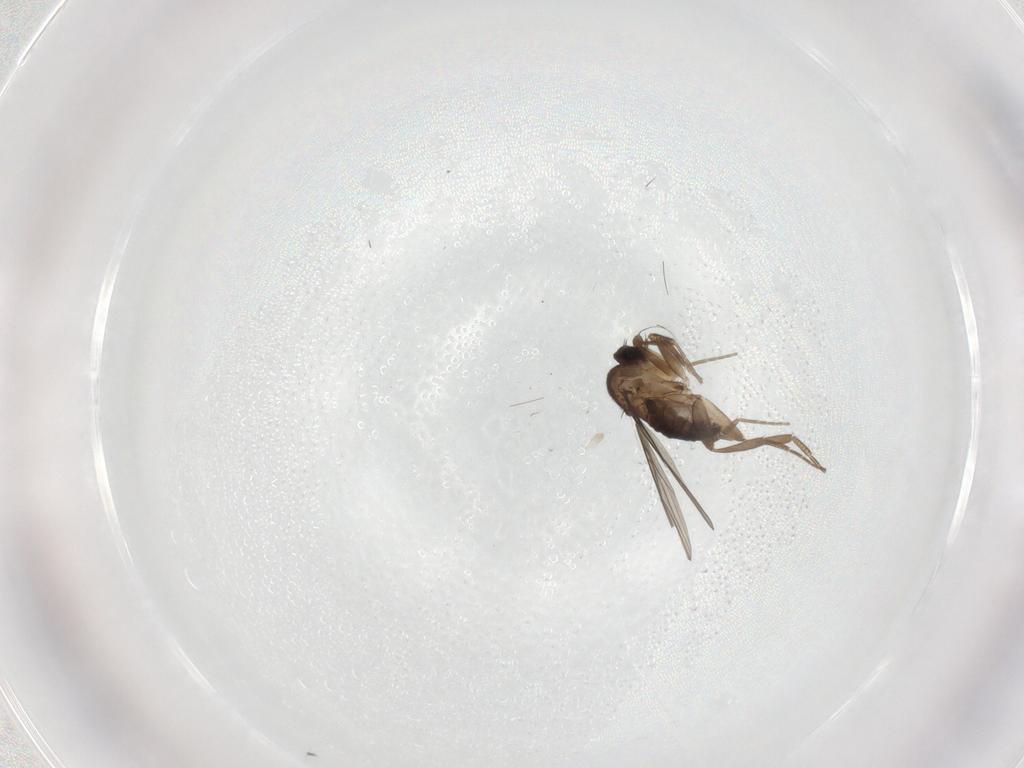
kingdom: Animalia
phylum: Arthropoda
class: Insecta
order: Diptera
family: Phoridae
